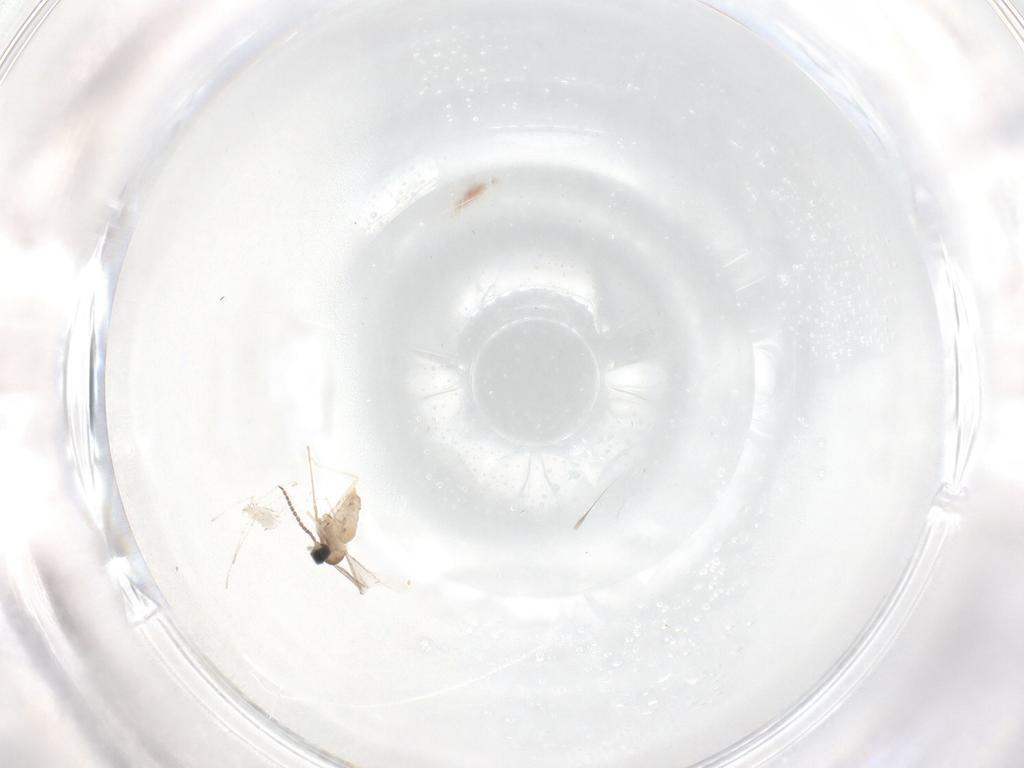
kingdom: Animalia
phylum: Arthropoda
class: Insecta
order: Diptera
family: Cecidomyiidae
